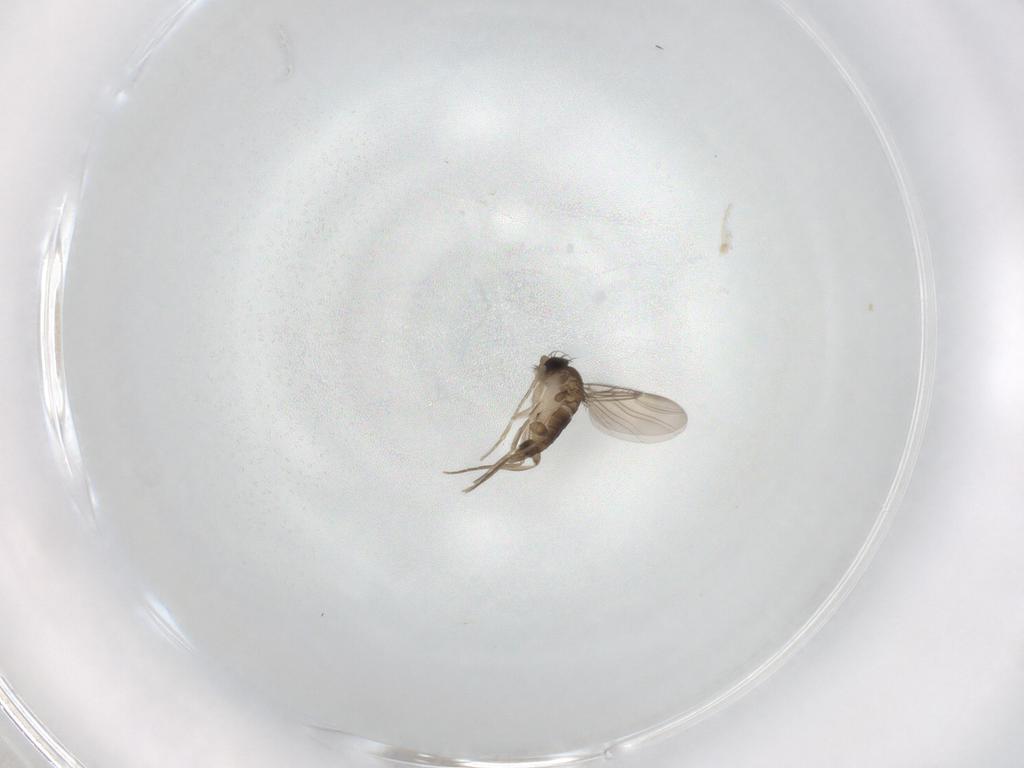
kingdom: Animalia
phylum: Arthropoda
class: Insecta
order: Diptera
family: Phoridae
